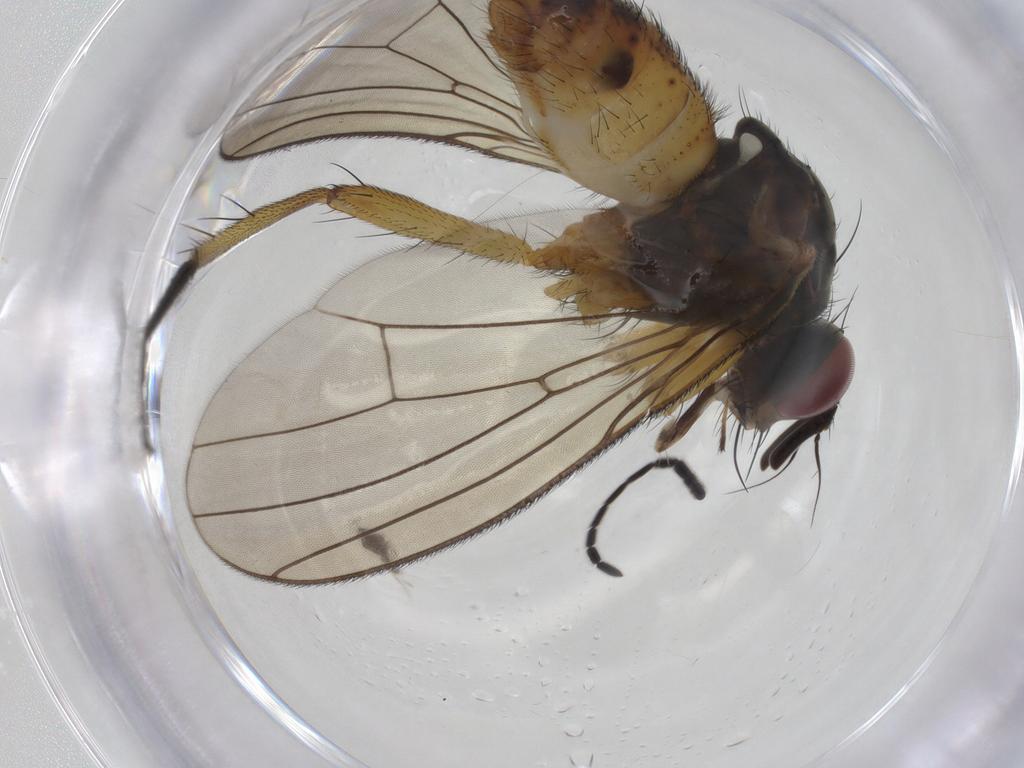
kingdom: Animalia
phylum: Arthropoda
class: Insecta
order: Diptera
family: Muscidae
